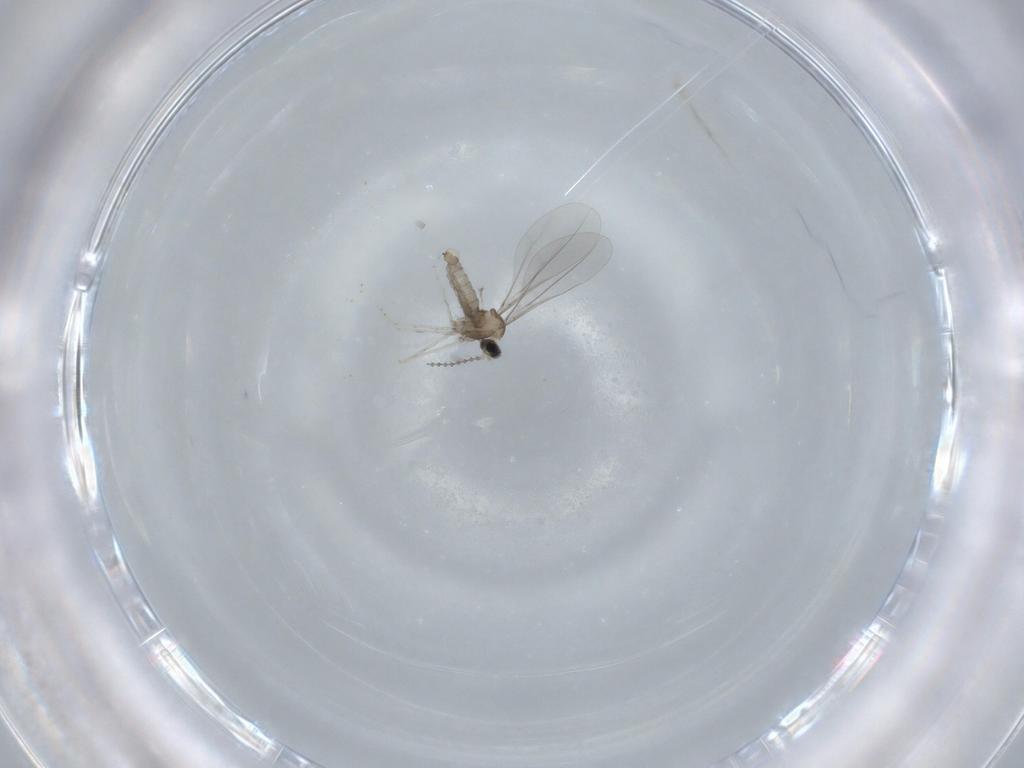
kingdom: Animalia
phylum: Arthropoda
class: Insecta
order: Diptera
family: Cecidomyiidae
